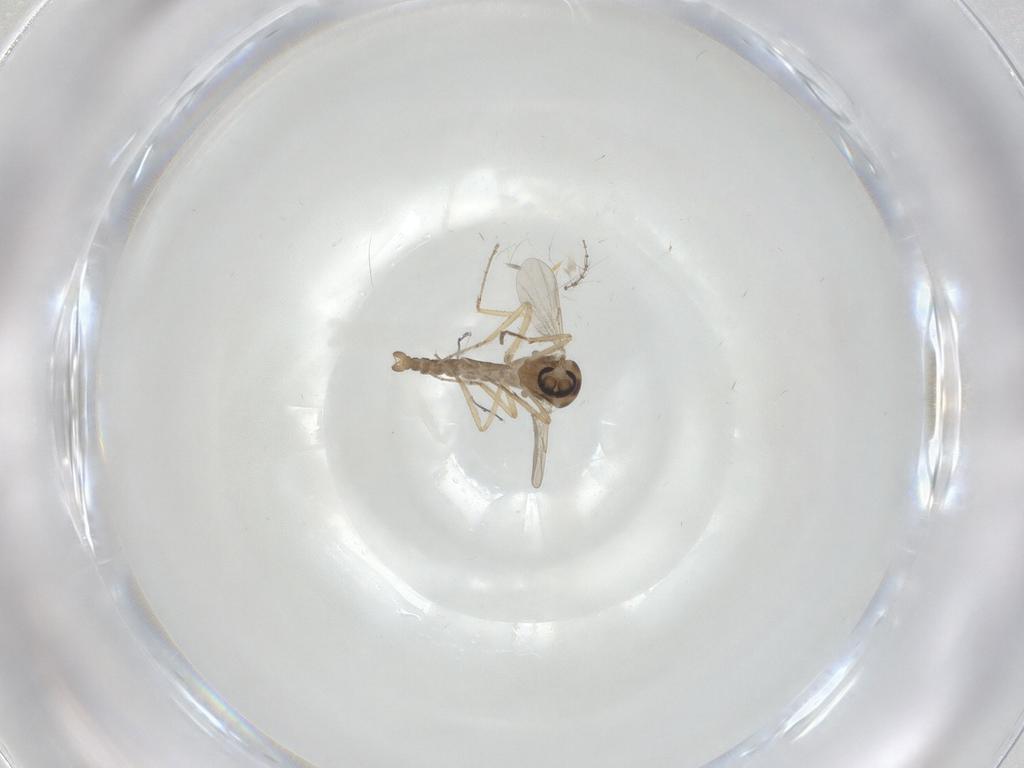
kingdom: Animalia
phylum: Arthropoda
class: Insecta
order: Diptera
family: Ceratopogonidae
